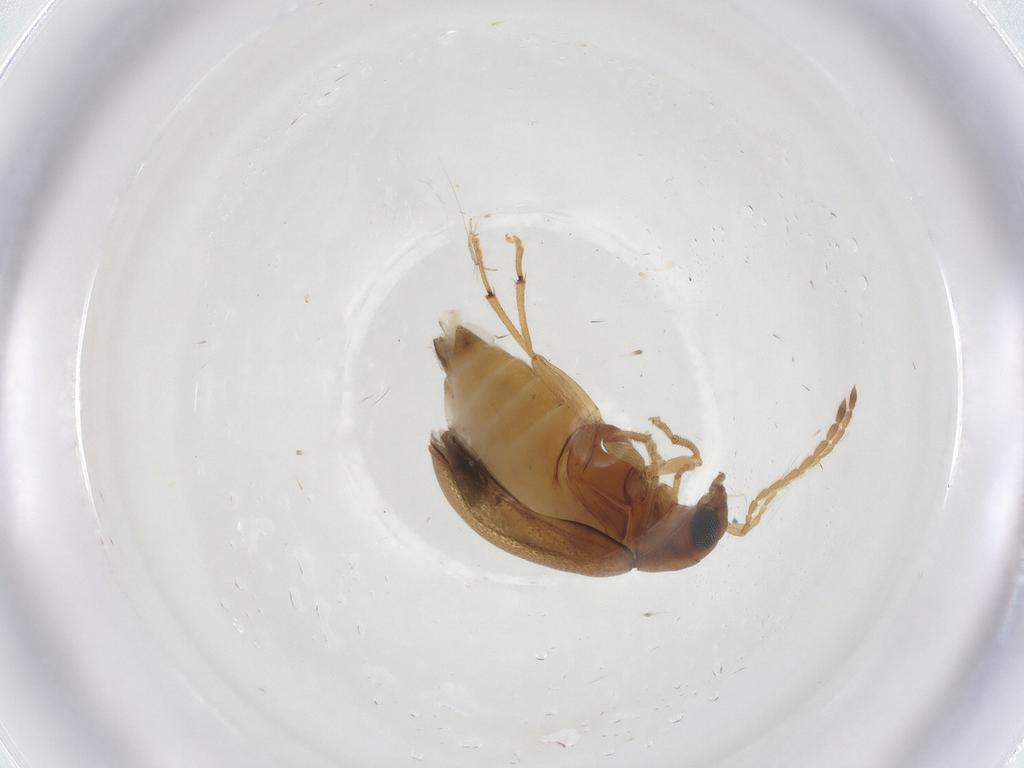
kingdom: Animalia
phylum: Arthropoda
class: Insecta
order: Coleoptera
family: Chrysomelidae
